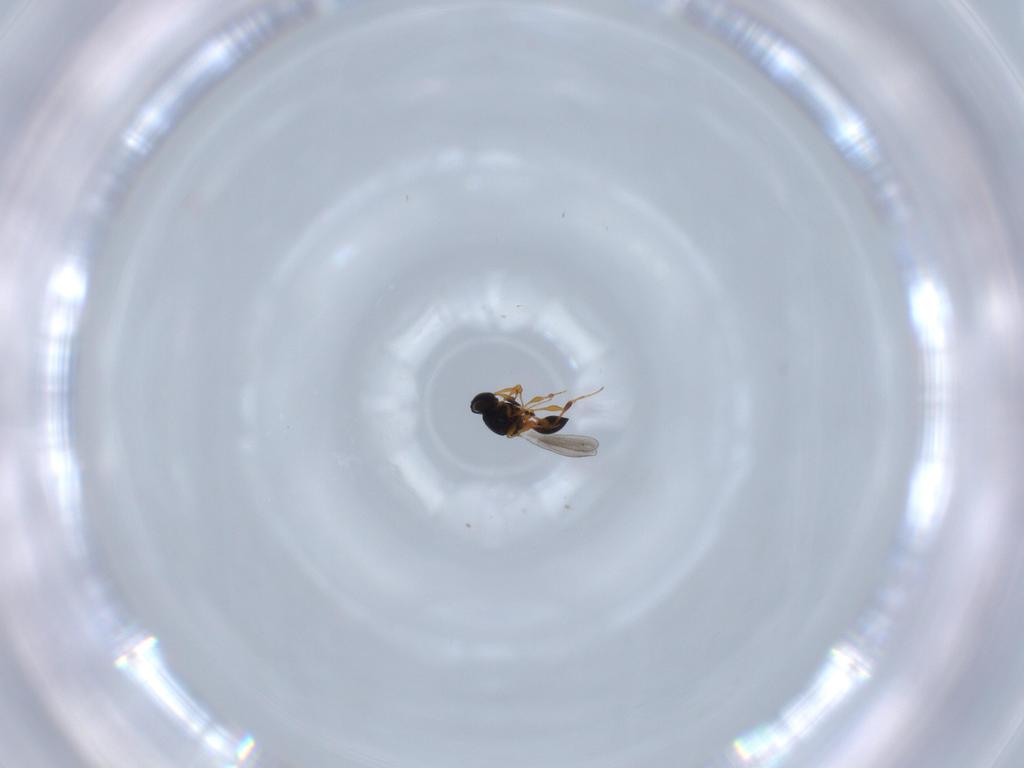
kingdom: Animalia
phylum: Arthropoda
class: Insecta
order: Hymenoptera
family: Platygastridae
